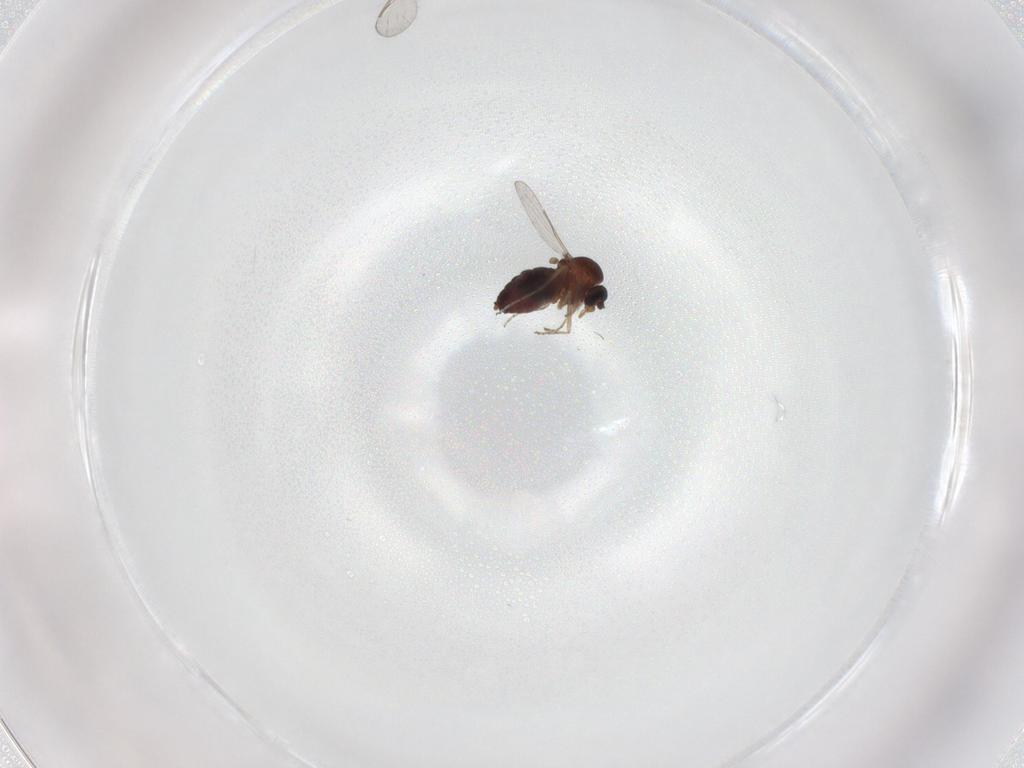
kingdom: Animalia
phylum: Arthropoda
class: Insecta
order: Diptera
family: Ceratopogonidae
